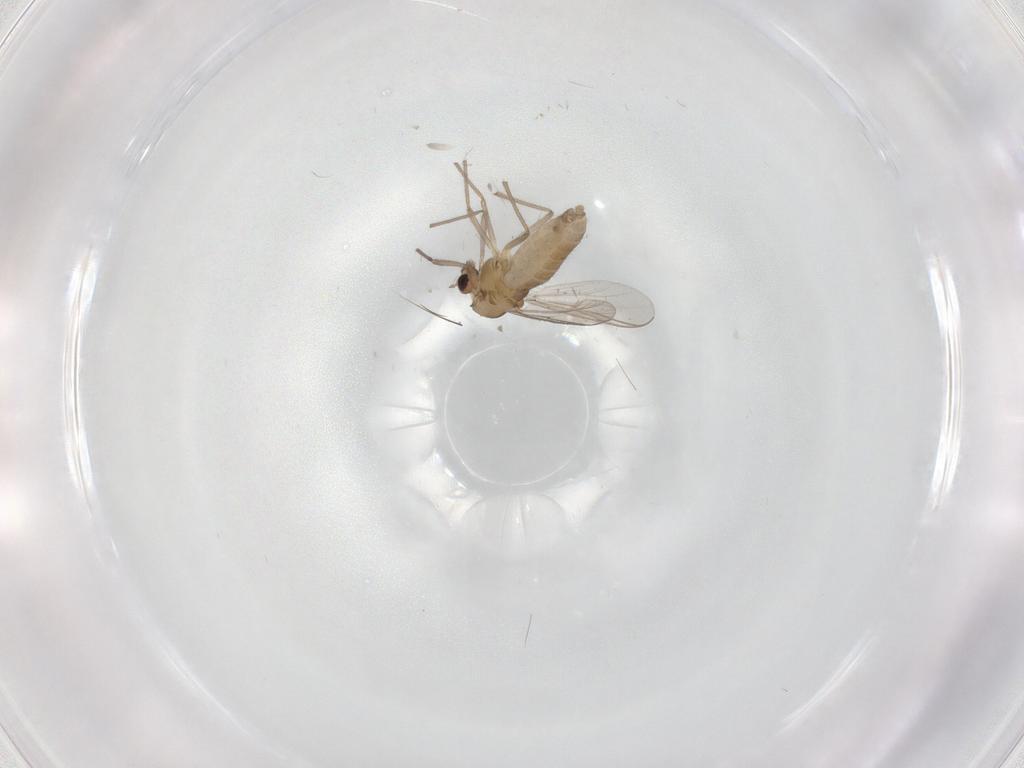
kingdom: Animalia
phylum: Arthropoda
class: Insecta
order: Diptera
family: Chironomidae
